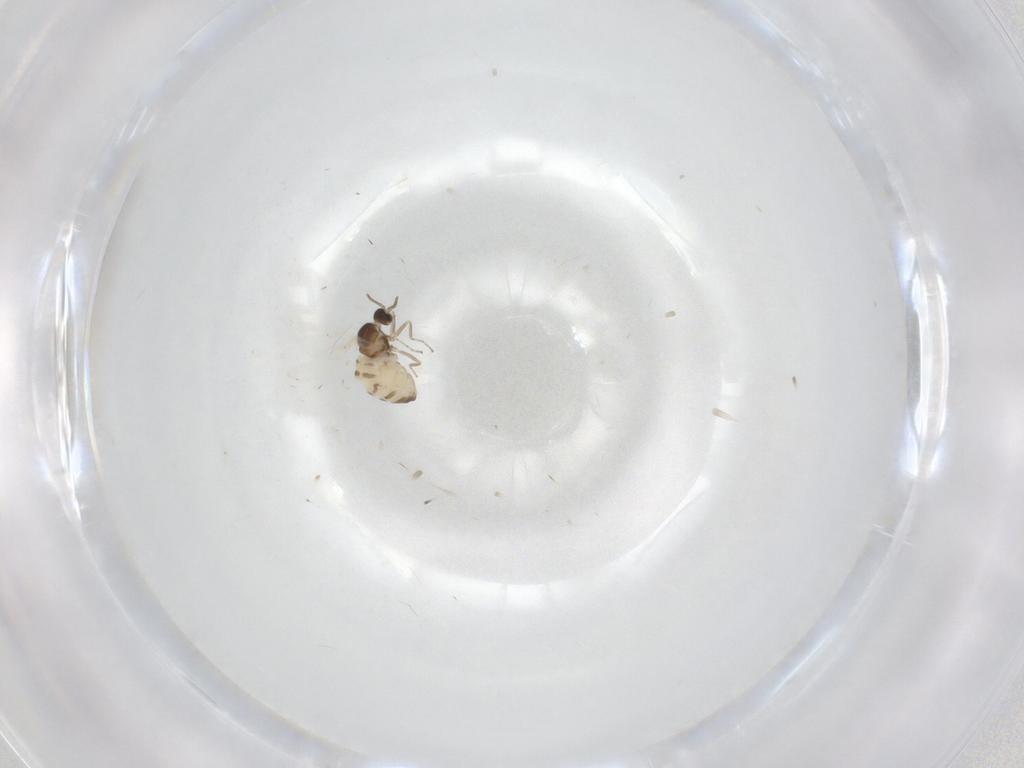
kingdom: Animalia
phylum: Arthropoda
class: Insecta
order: Diptera
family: Cecidomyiidae
